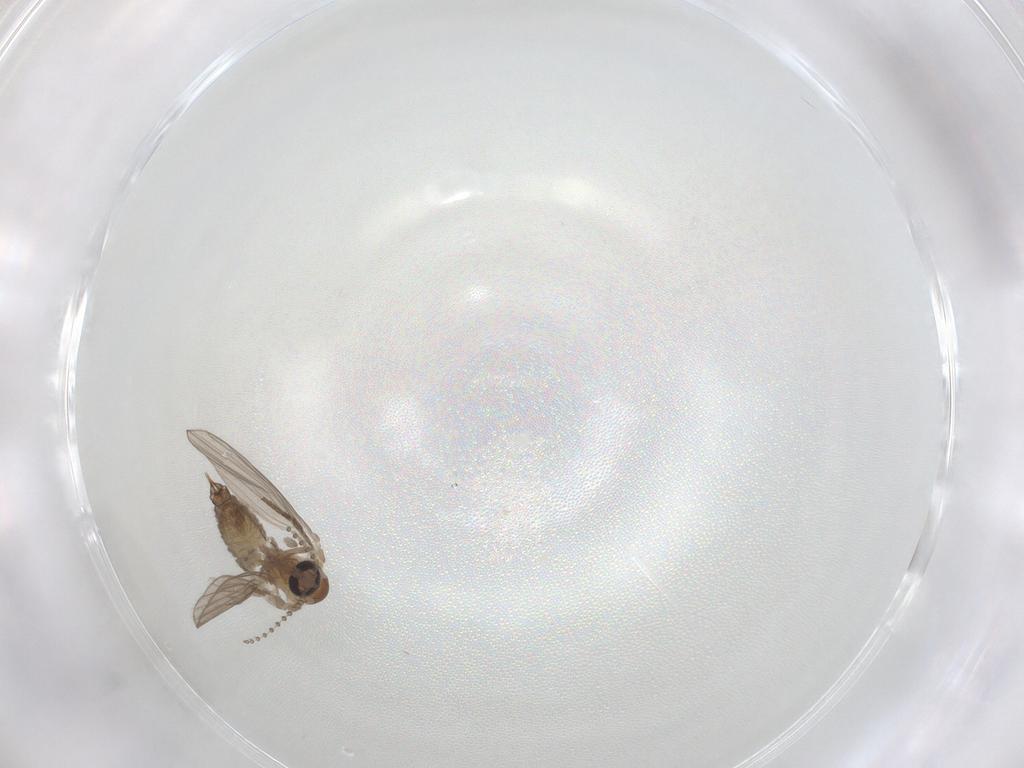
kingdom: Animalia
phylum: Arthropoda
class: Insecta
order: Diptera
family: Psychodidae
